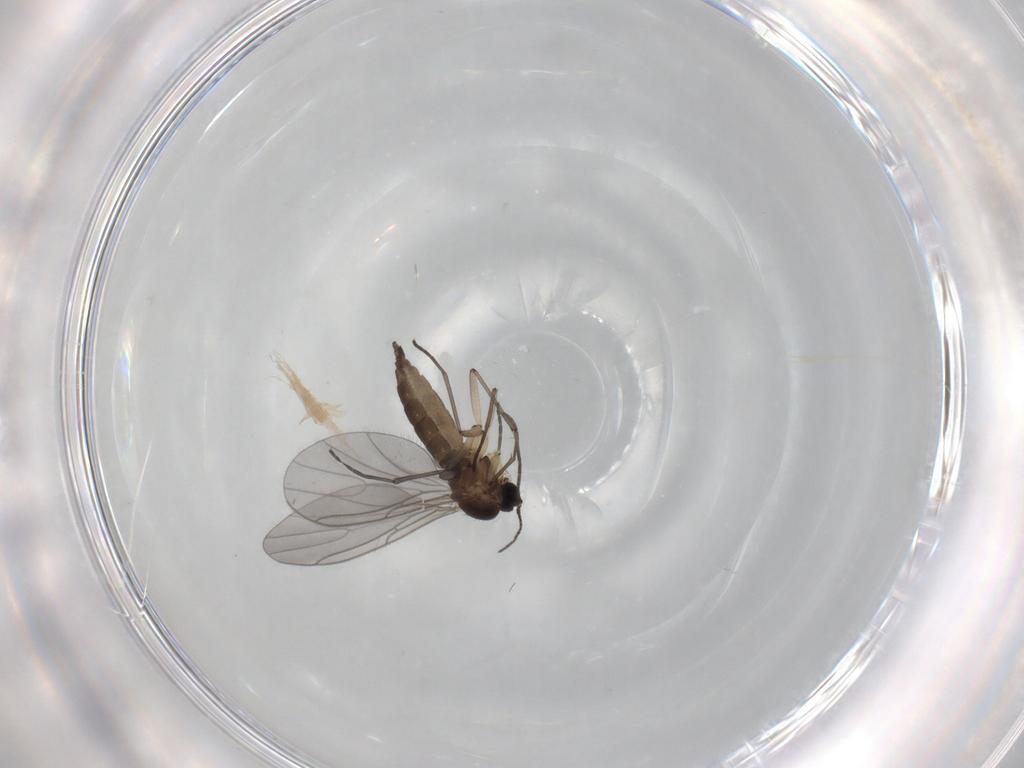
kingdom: Animalia
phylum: Arthropoda
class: Insecta
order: Diptera
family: Sciaridae
